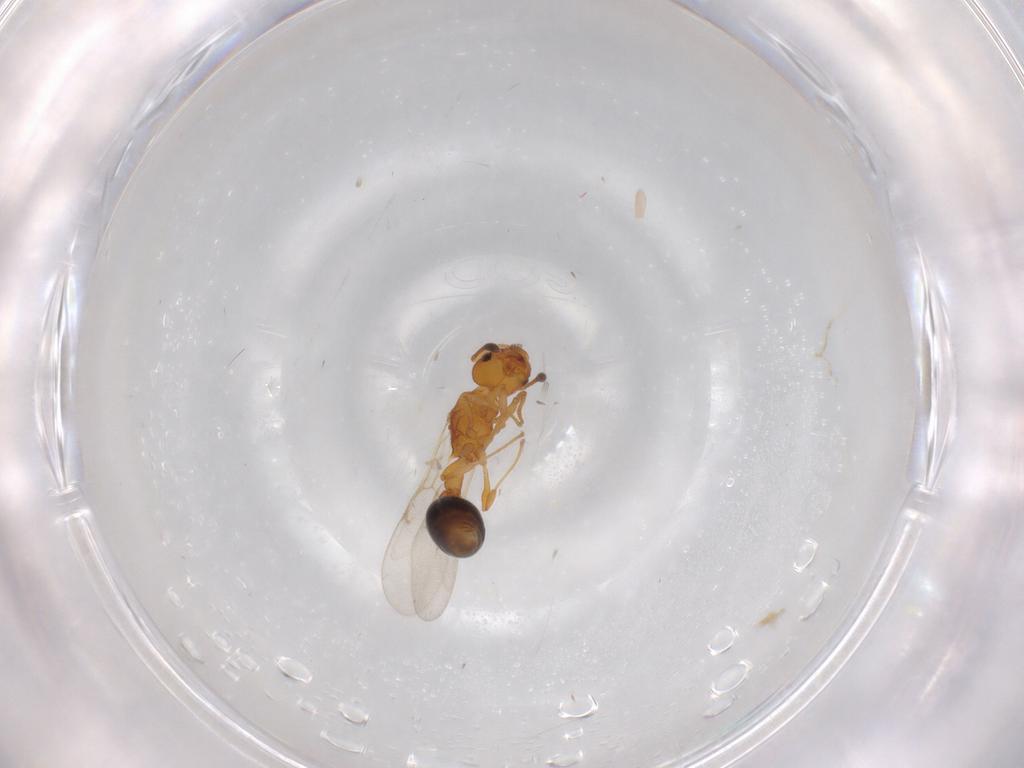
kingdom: Animalia
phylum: Arthropoda
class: Insecta
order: Hymenoptera
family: Formicidae
